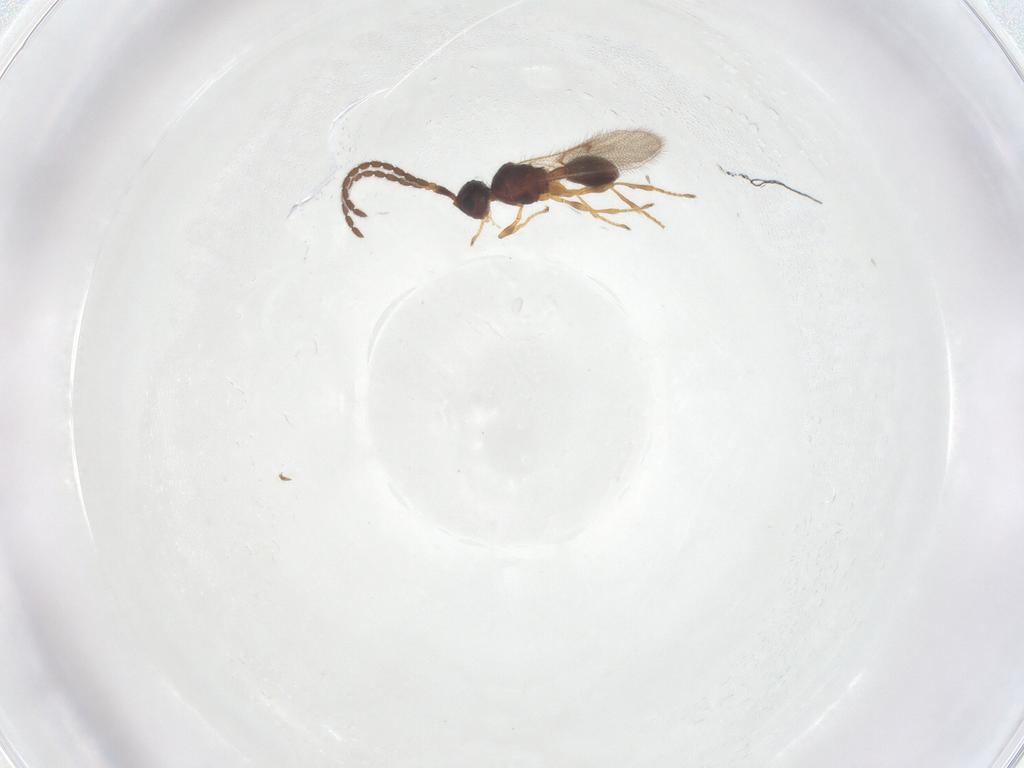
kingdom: Animalia
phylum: Arthropoda
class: Insecta
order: Hymenoptera
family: Diapriidae
